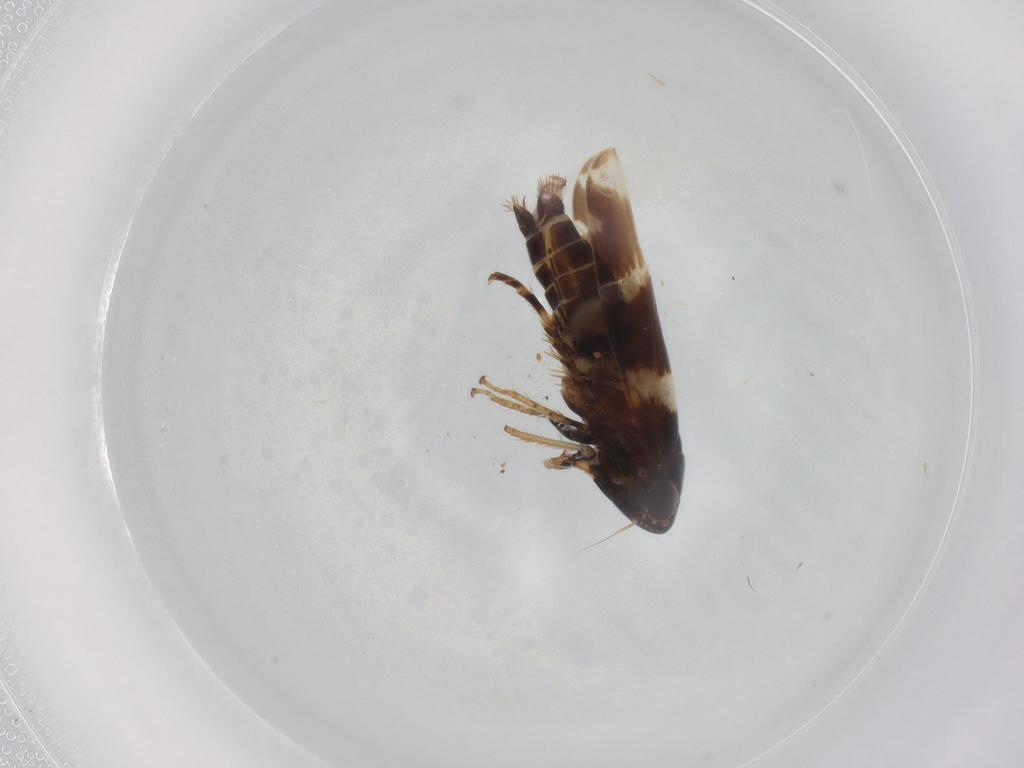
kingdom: Animalia
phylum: Arthropoda
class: Insecta
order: Hemiptera
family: Cicadellidae
